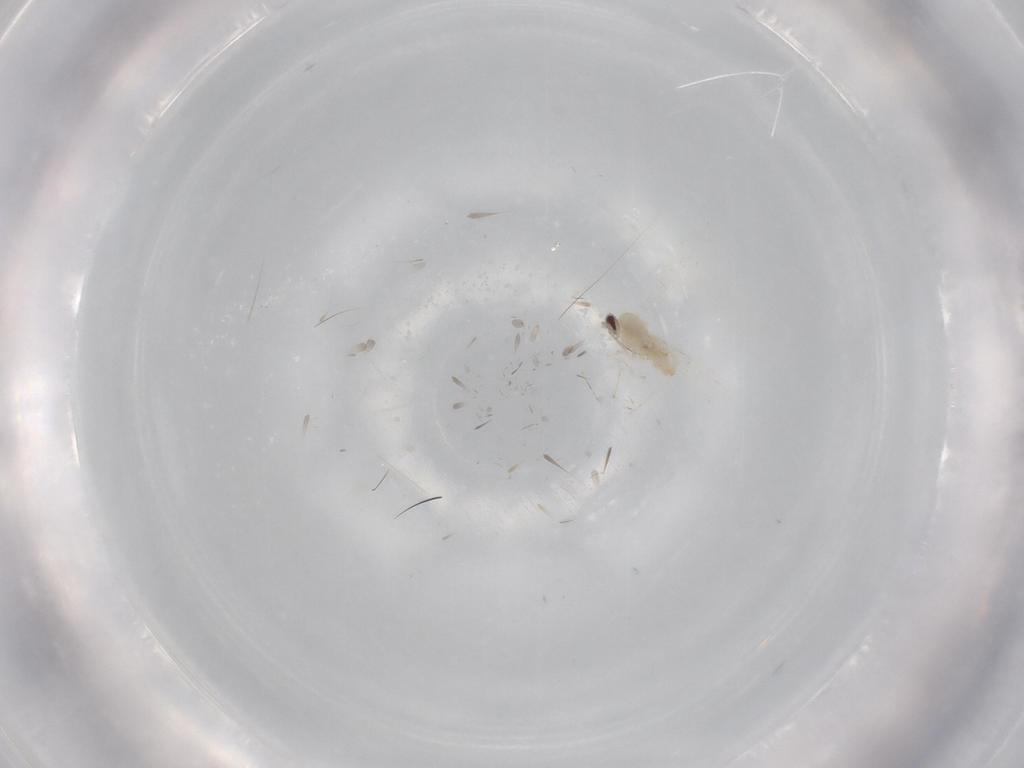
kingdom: Animalia
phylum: Arthropoda
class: Insecta
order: Diptera
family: Cecidomyiidae
